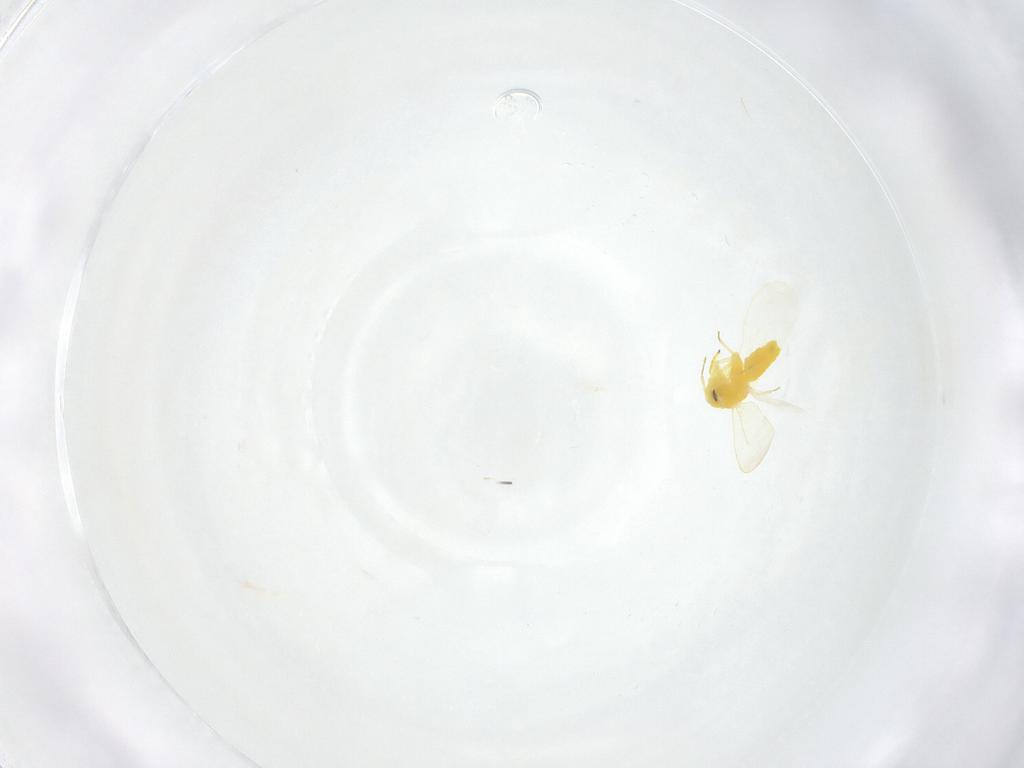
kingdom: Animalia
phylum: Arthropoda
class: Insecta
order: Hemiptera
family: Aleyrodidae
